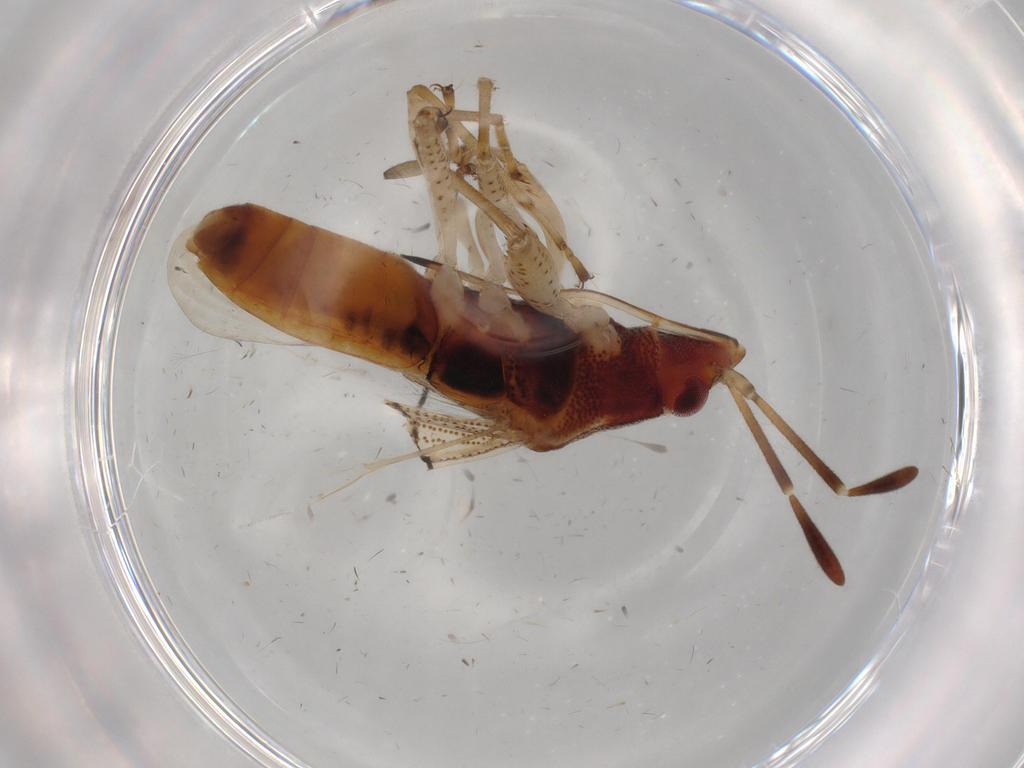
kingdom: Animalia
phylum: Arthropoda
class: Insecta
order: Hemiptera
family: Rhyparochromidae
